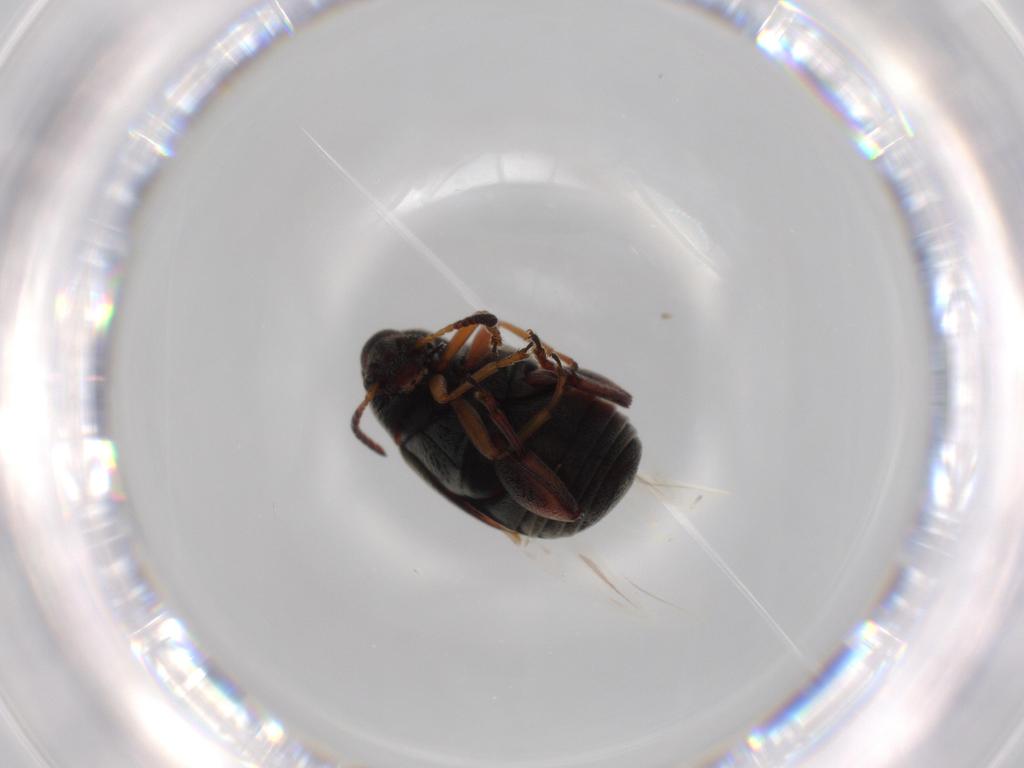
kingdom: Animalia
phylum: Arthropoda
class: Insecta
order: Coleoptera
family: Chrysomelidae
